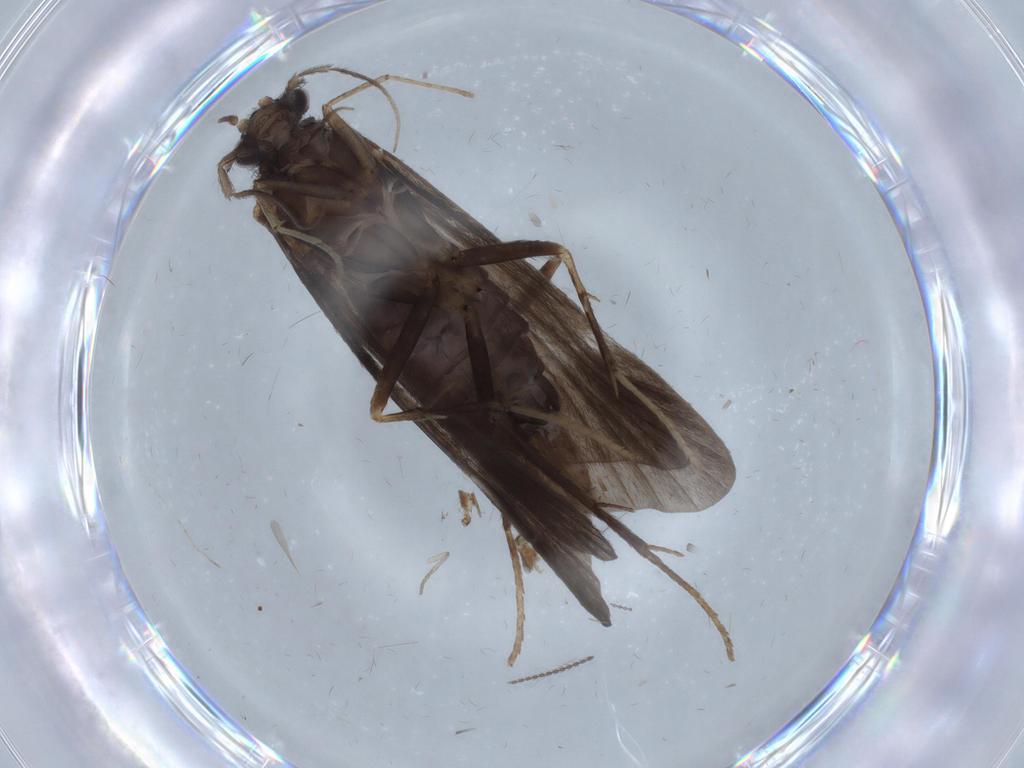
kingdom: Animalia
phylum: Arthropoda
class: Insecta
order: Trichoptera
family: Hydropsychidae
